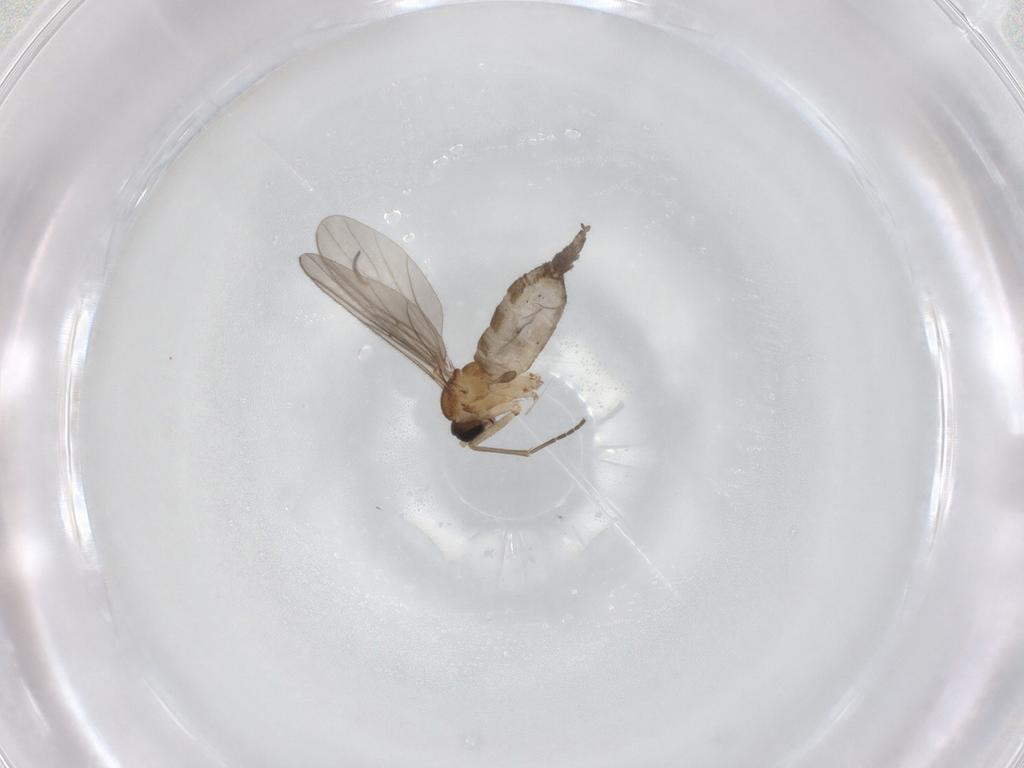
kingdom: Animalia
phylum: Arthropoda
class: Insecta
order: Diptera
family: Sciaridae
